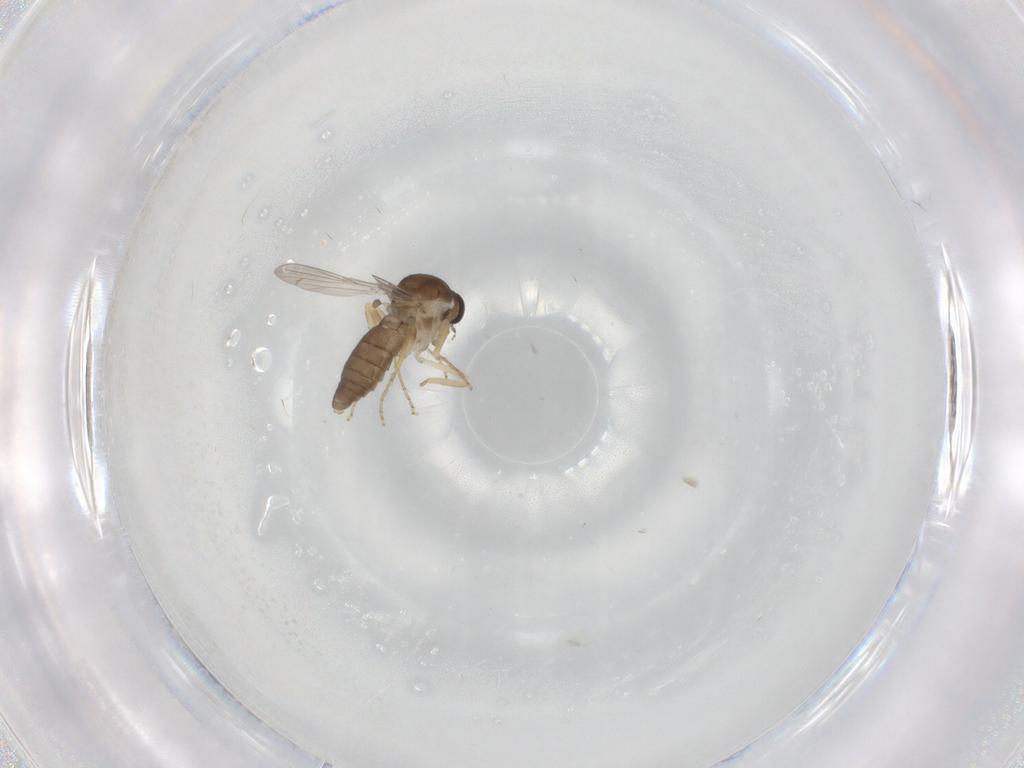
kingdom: Animalia
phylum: Arthropoda
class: Insecta
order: Diptera
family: Ceratopogonidae
